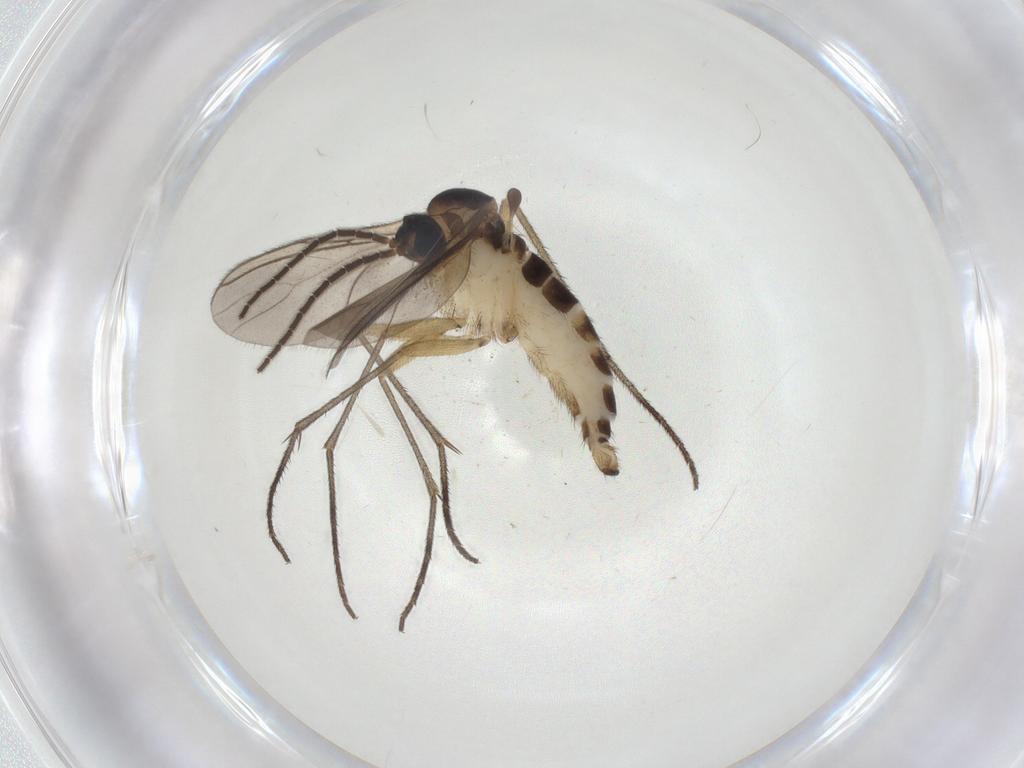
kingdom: Animalia
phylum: Arthropoda
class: Insecta
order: Diptera
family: Sciaridae
